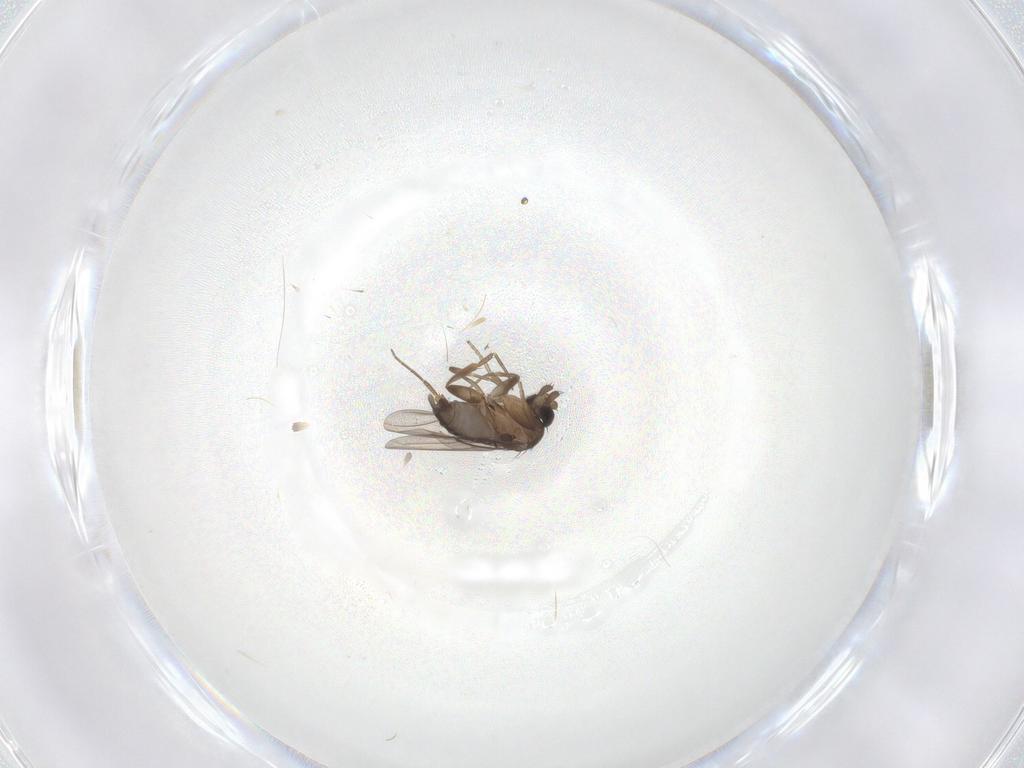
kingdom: Animalia
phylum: Arthropoda
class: Insecta
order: Diptera
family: Phoridae
